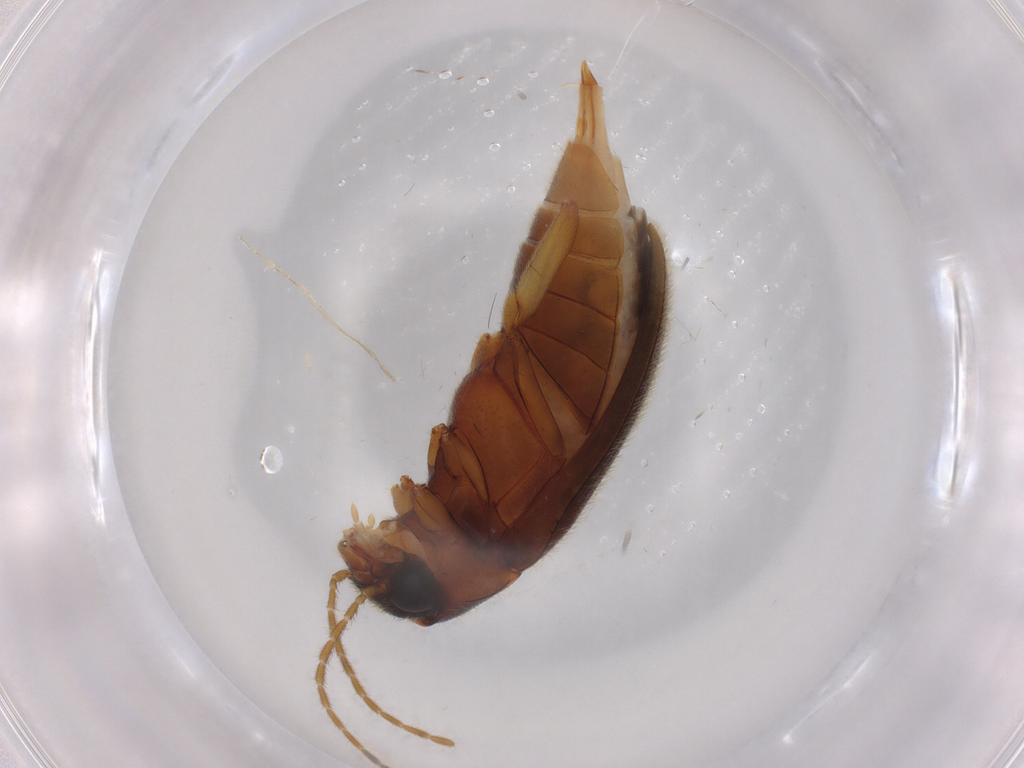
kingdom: Animalia
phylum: Arthropoda
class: Insecta
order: Coleoptera
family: Ptilodactylidae
